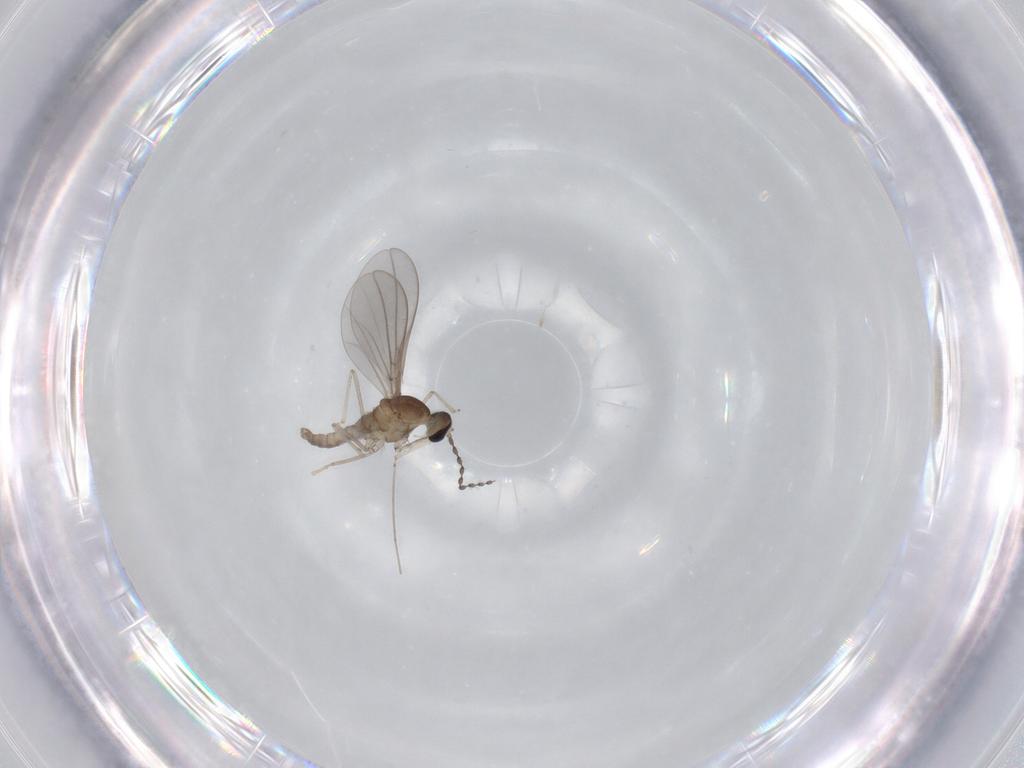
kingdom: Animalia
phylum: Arthropoda
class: Insecta
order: Diptera
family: Cecidomyiidae
